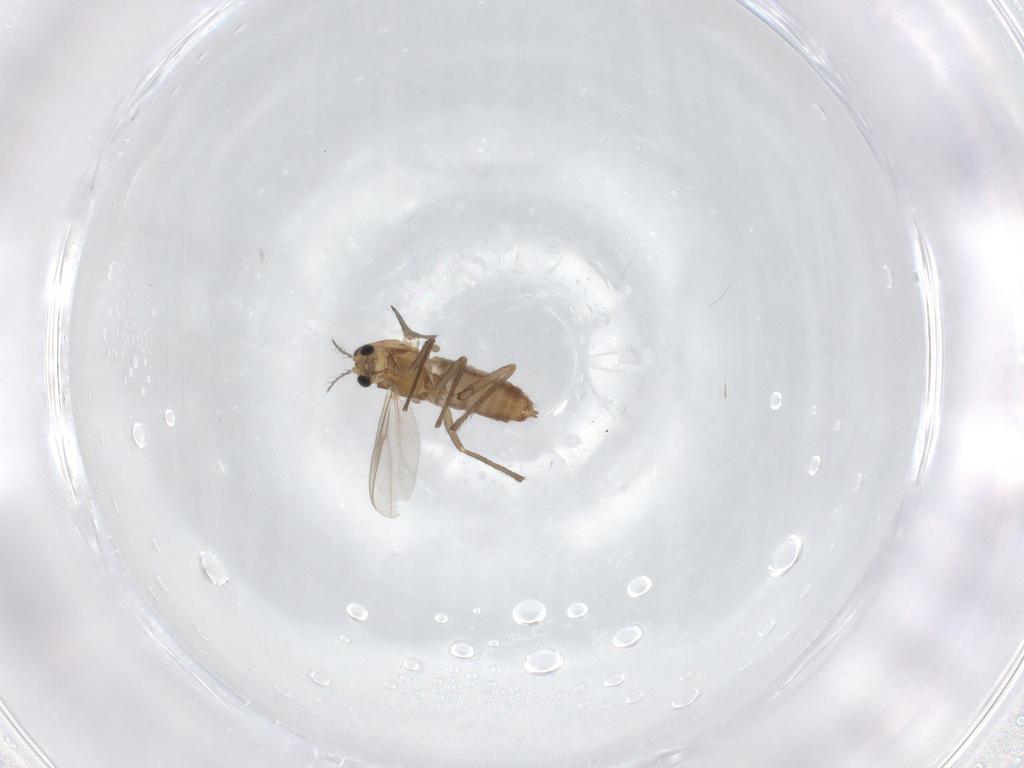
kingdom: Animalia
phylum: Arthropoda
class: Insecta
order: Diptera
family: Chironomidae
